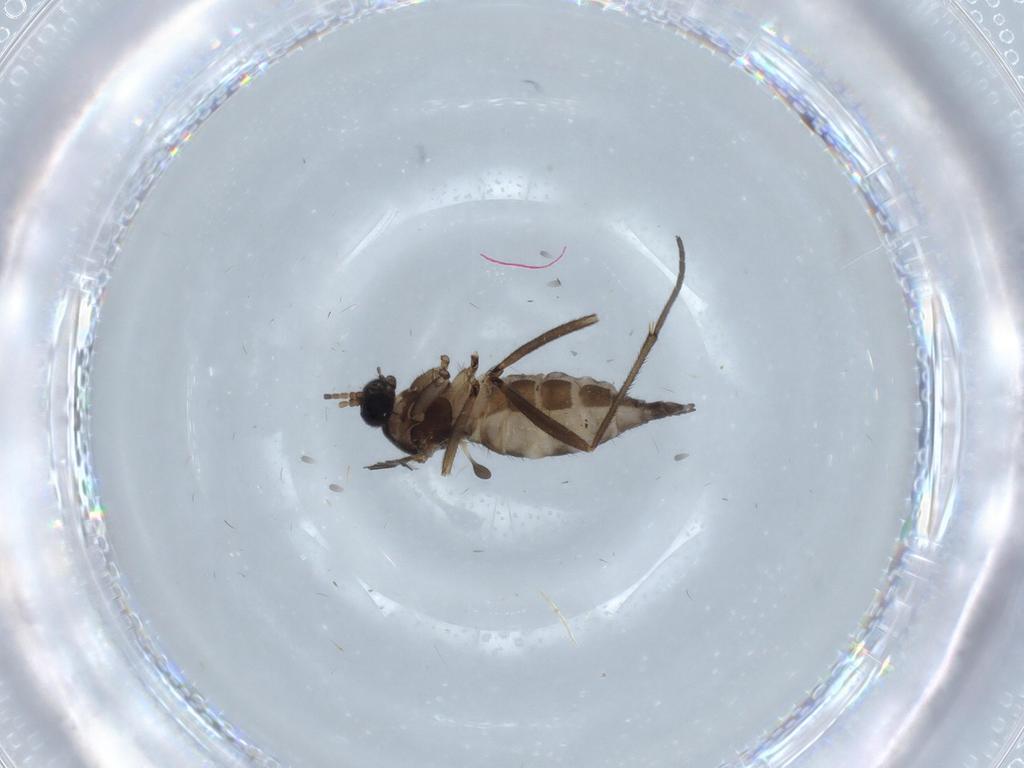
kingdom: Animalia
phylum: Arthropoda
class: Insecta
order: Diptera
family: Sciaridae
